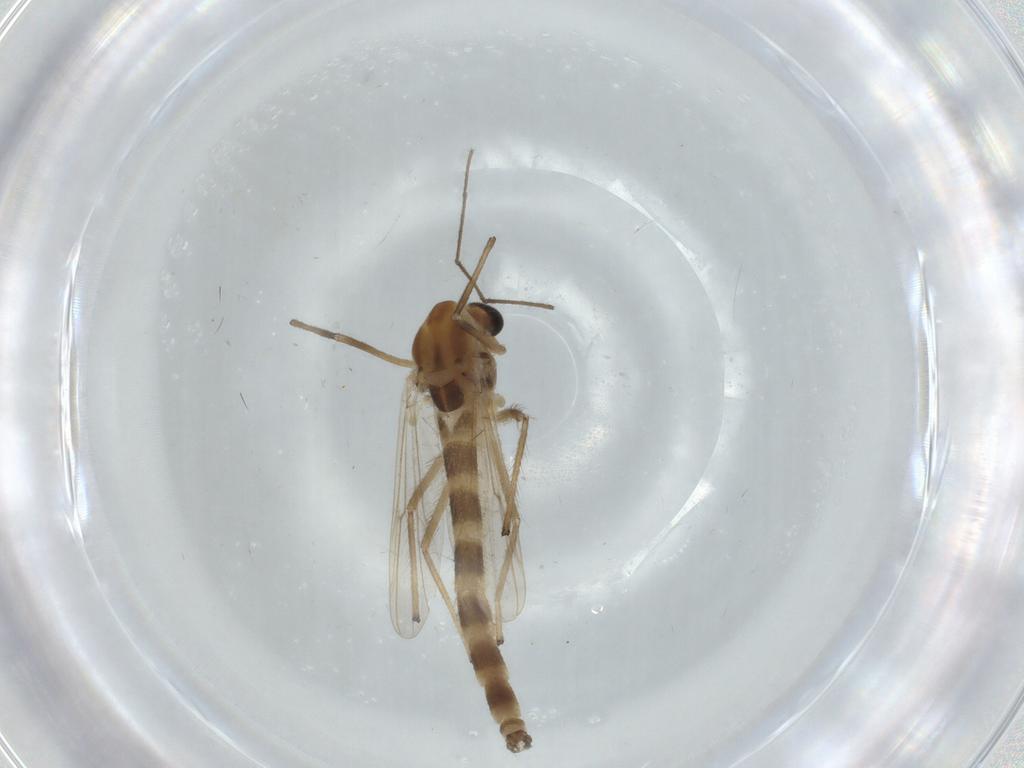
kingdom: Animalia
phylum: Arthropoda
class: Insecta
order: Diptera
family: Chironomidae
